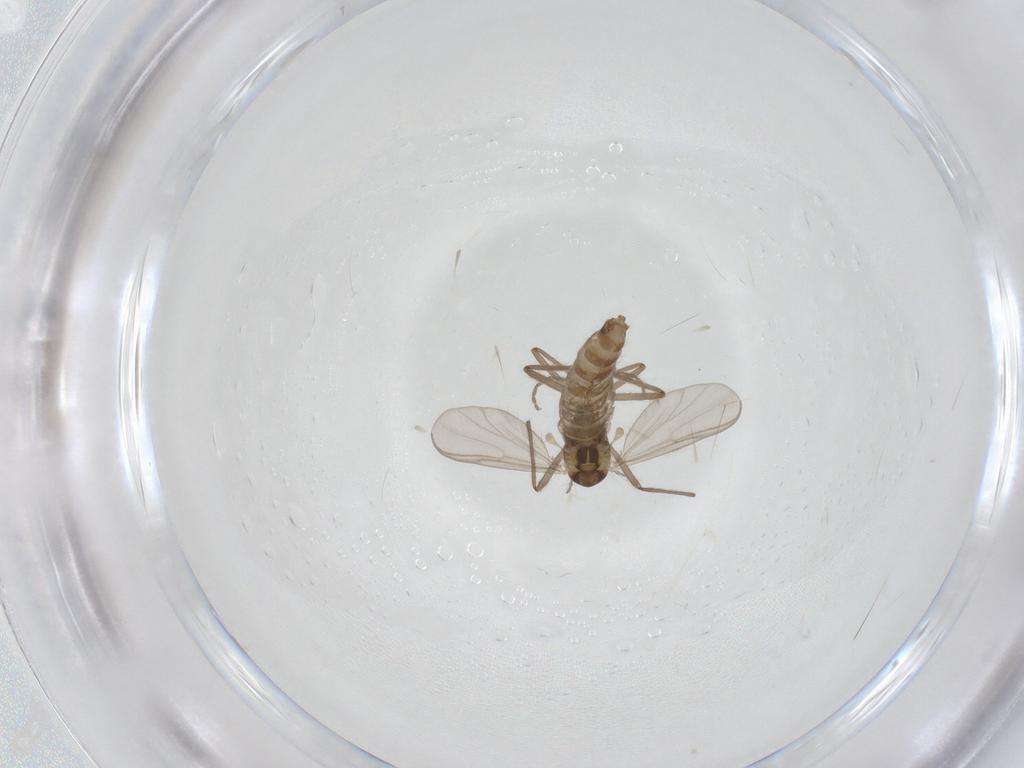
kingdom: Animalia
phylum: Arthropoda
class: Insecta
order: Diptera
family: Chironomidae
